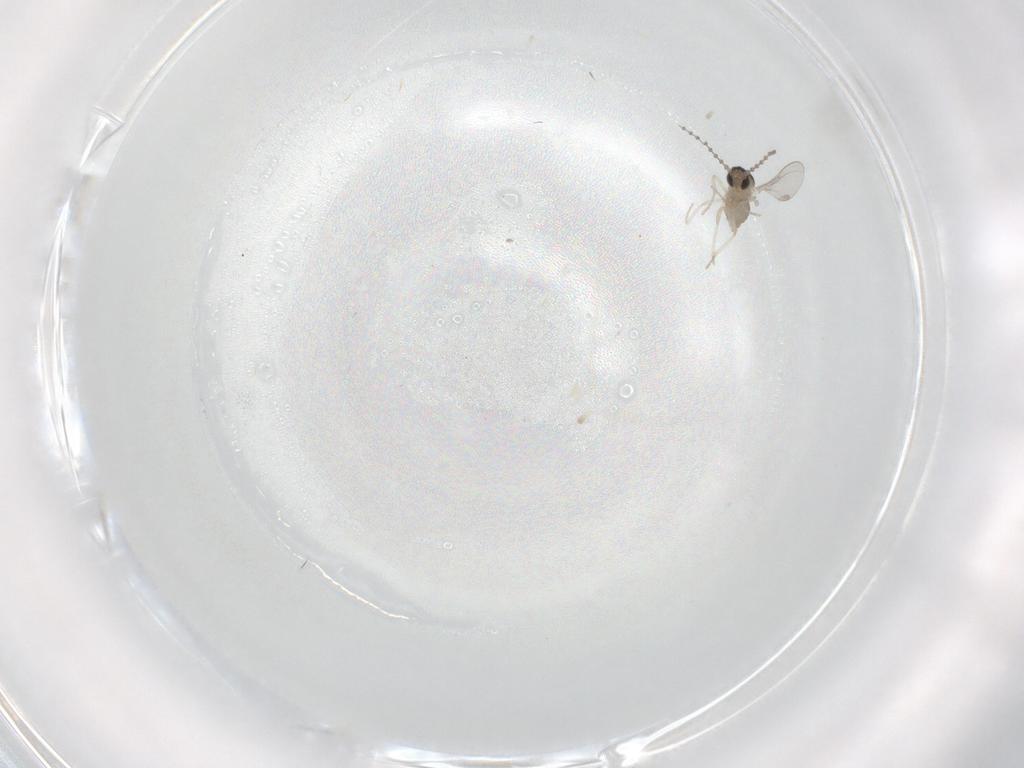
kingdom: Animalia
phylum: Arthropoda
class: Insecta
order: Diptera
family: Cecidomyiidae
